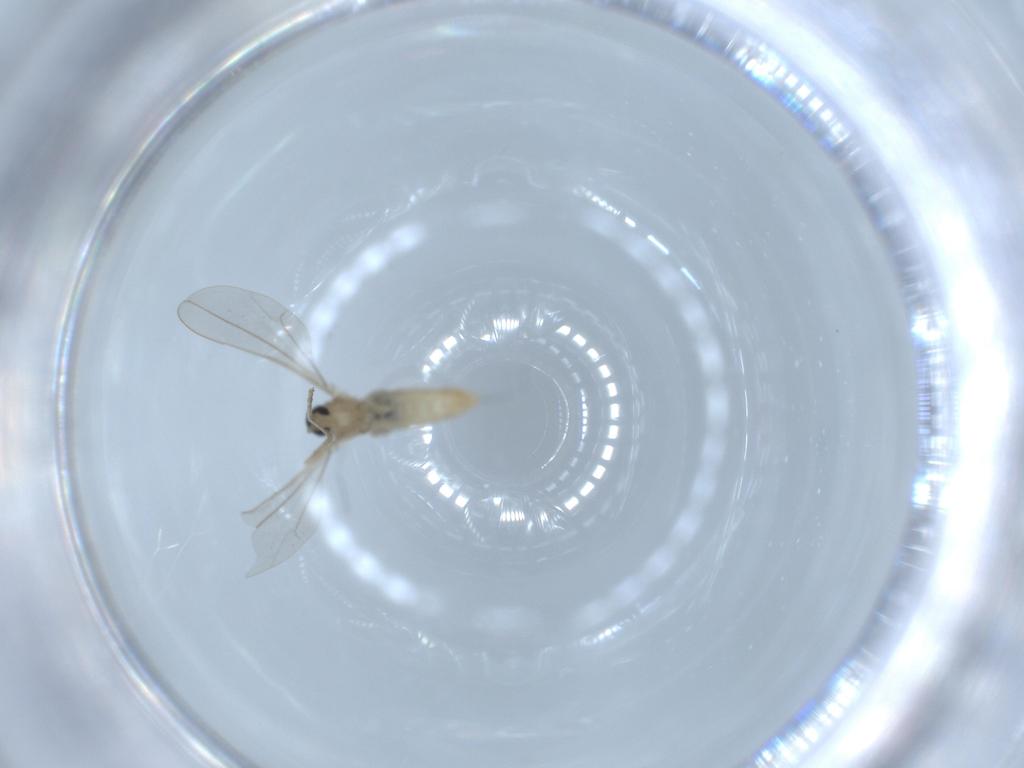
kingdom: Animalia
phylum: Arthropoda
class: Insecta
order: Diptera
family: Cecidomyiidae
